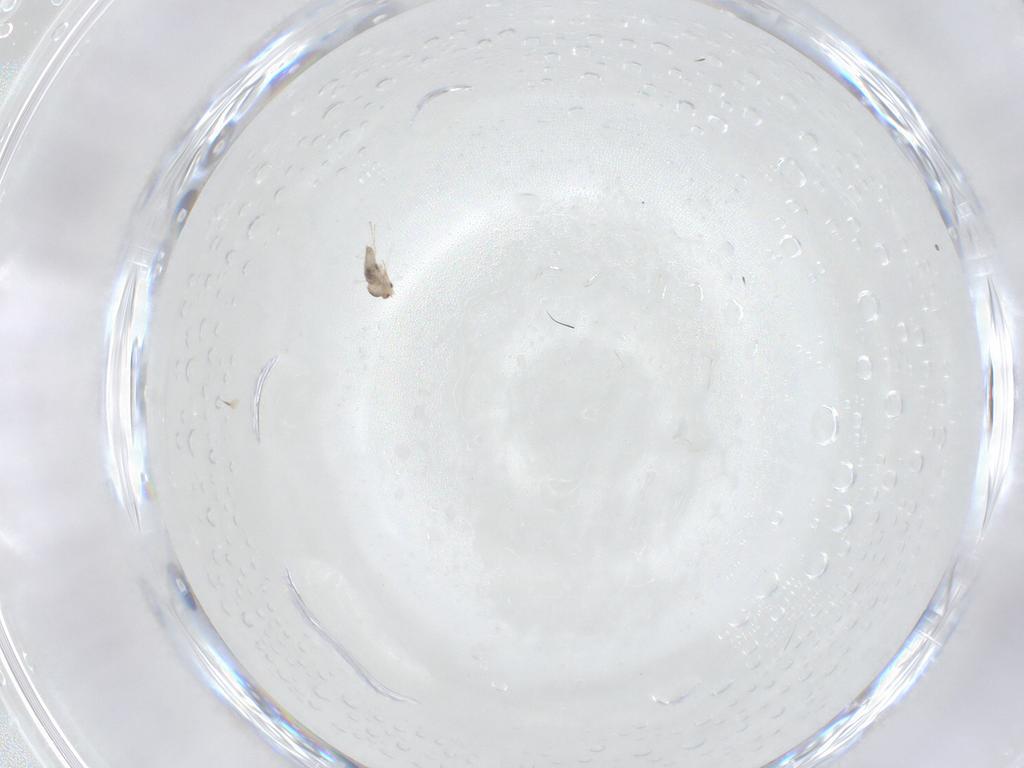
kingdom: Animalia
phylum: Arthropoda
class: Insecta
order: Diptera
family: Cecidomyiidae
